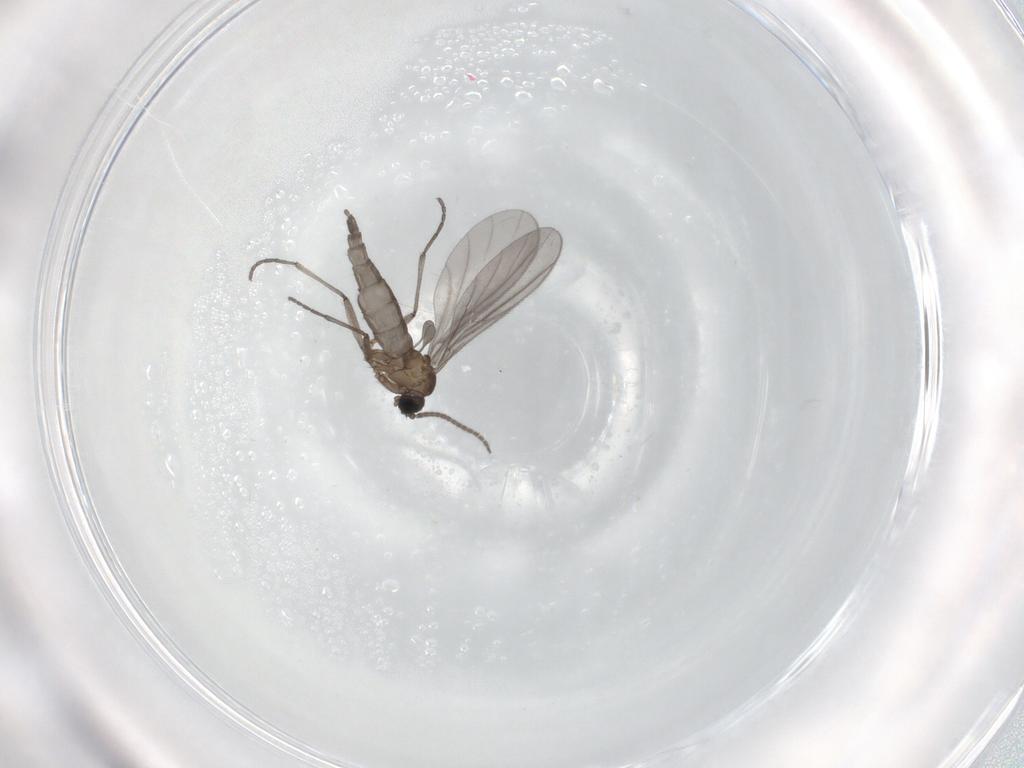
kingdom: Animalia
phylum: Arthropoda
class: Insecta
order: Diptera
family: Sciaridae
